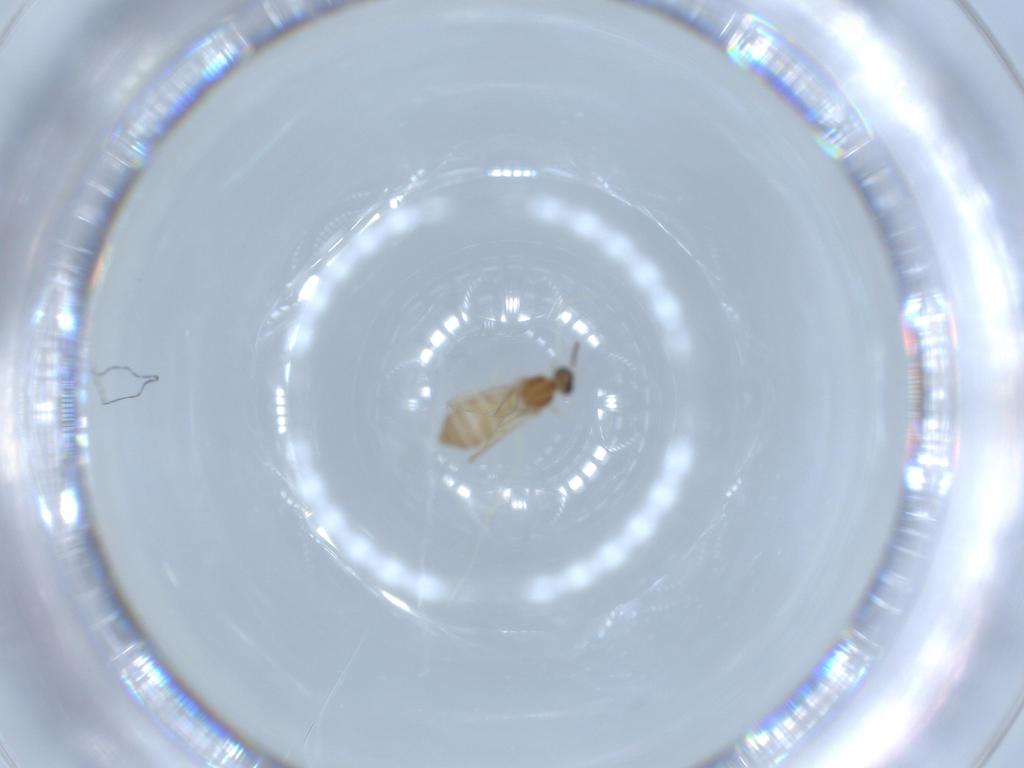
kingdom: Animalia
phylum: Arthropoda
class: Insecta
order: Diptera
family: Cecidomyiidae
